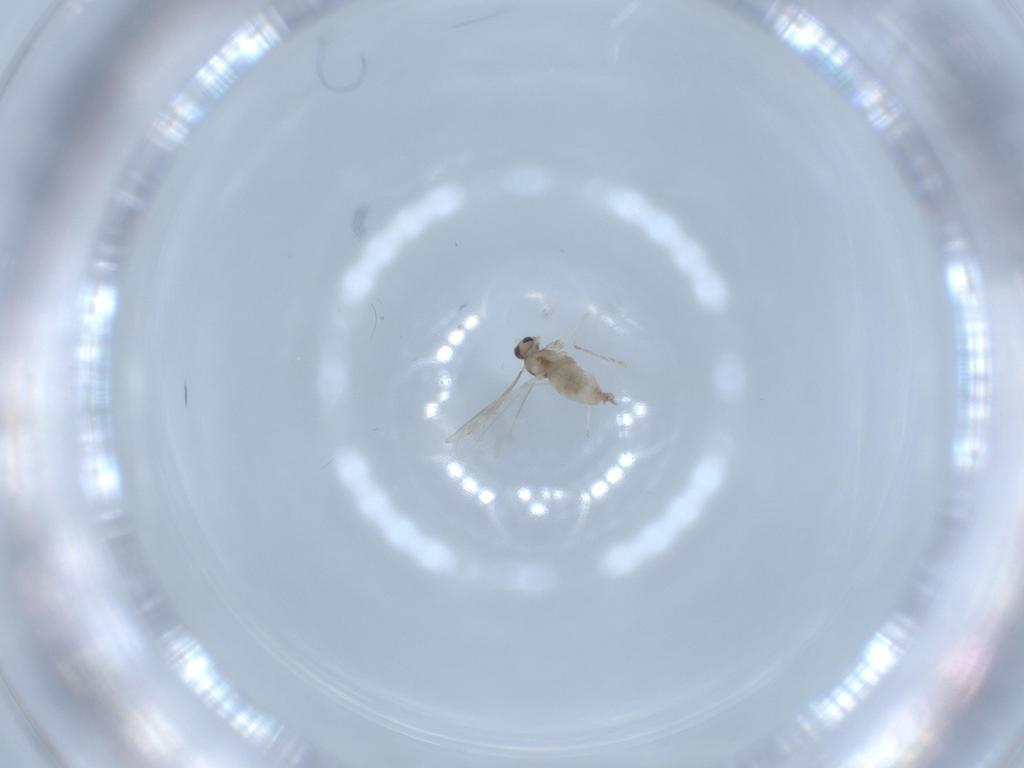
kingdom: Animalia
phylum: Arthropoda
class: Insecta
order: Diptera
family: Cecidomyiidae
